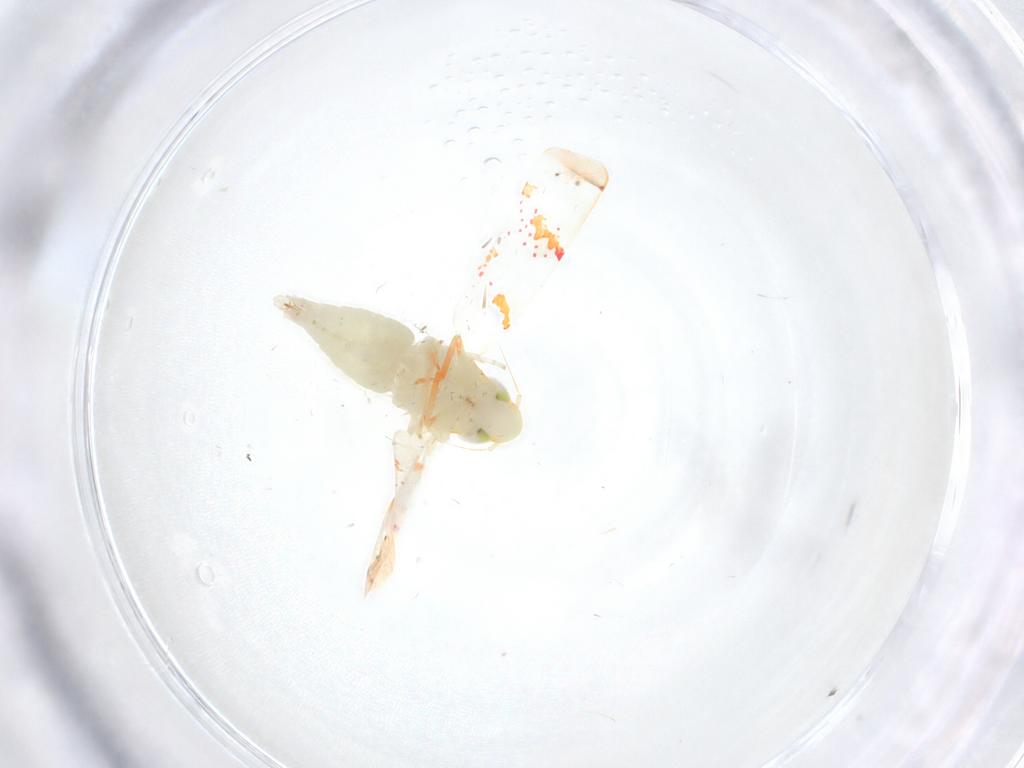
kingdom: Animalia
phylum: Arthropoda
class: Insecta
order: Hemiptera
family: Cicadellidae
